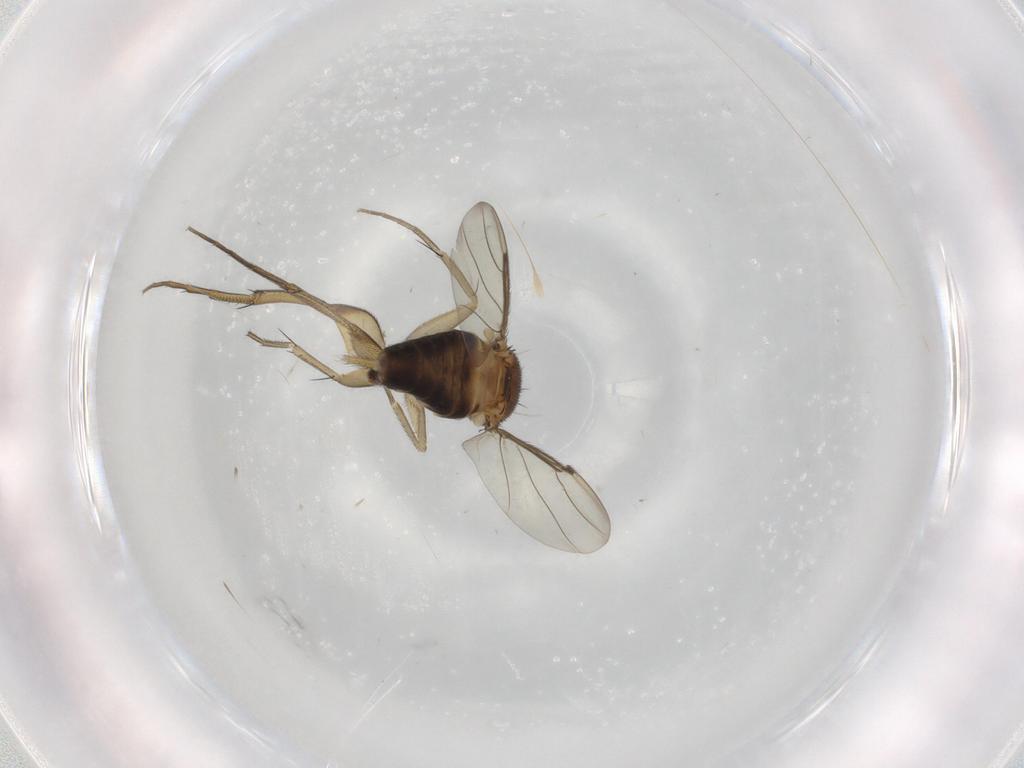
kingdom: Animalia
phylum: Arthropoda
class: Insecta
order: Diptera
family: Phoridae
